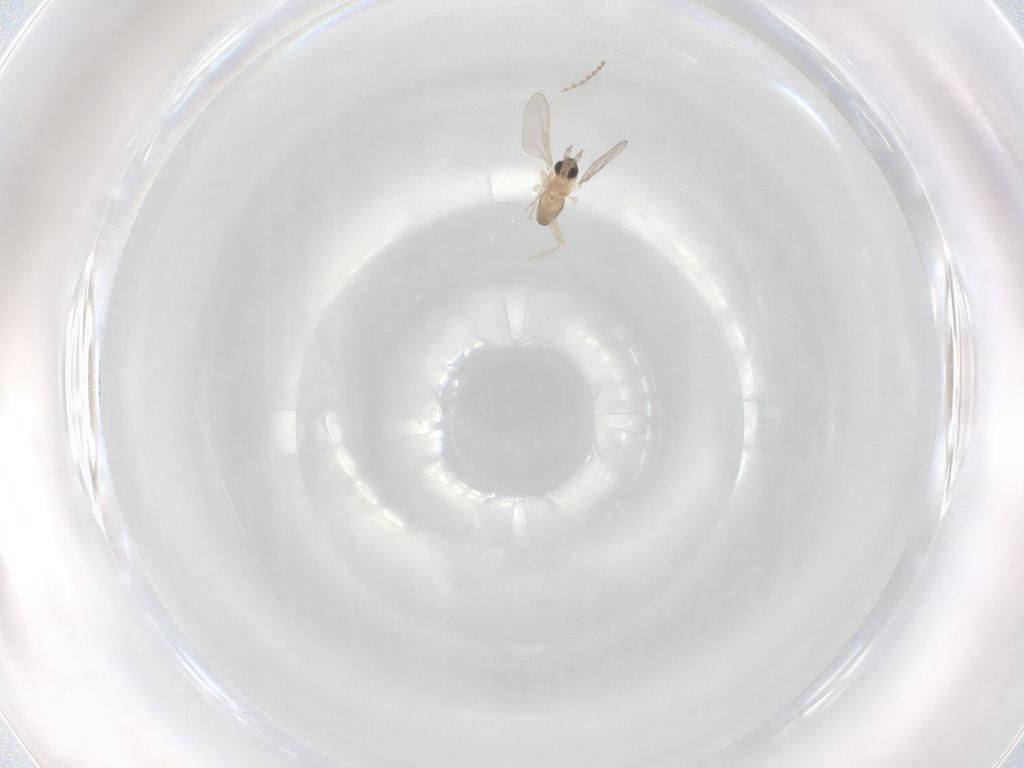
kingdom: Animalia
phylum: Arthropoda
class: Insecta
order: Diptera
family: Cecidomyiidae
